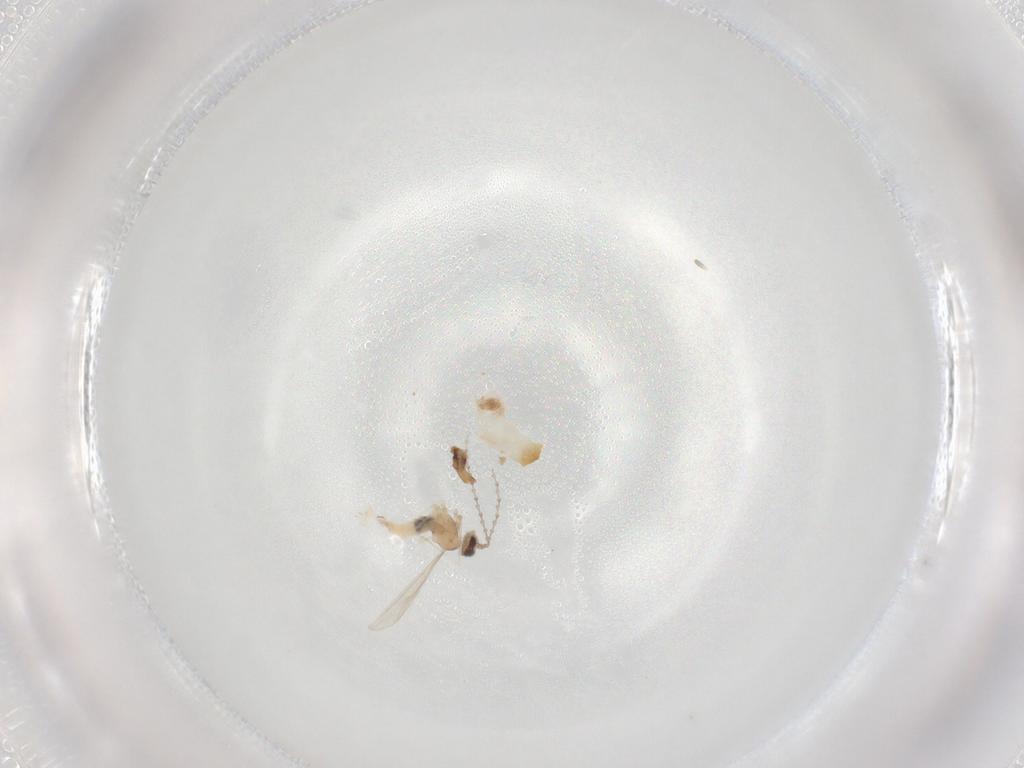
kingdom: Animalia
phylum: Arthropoda
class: Insecta
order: Diptera
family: Cecidomyiidae
